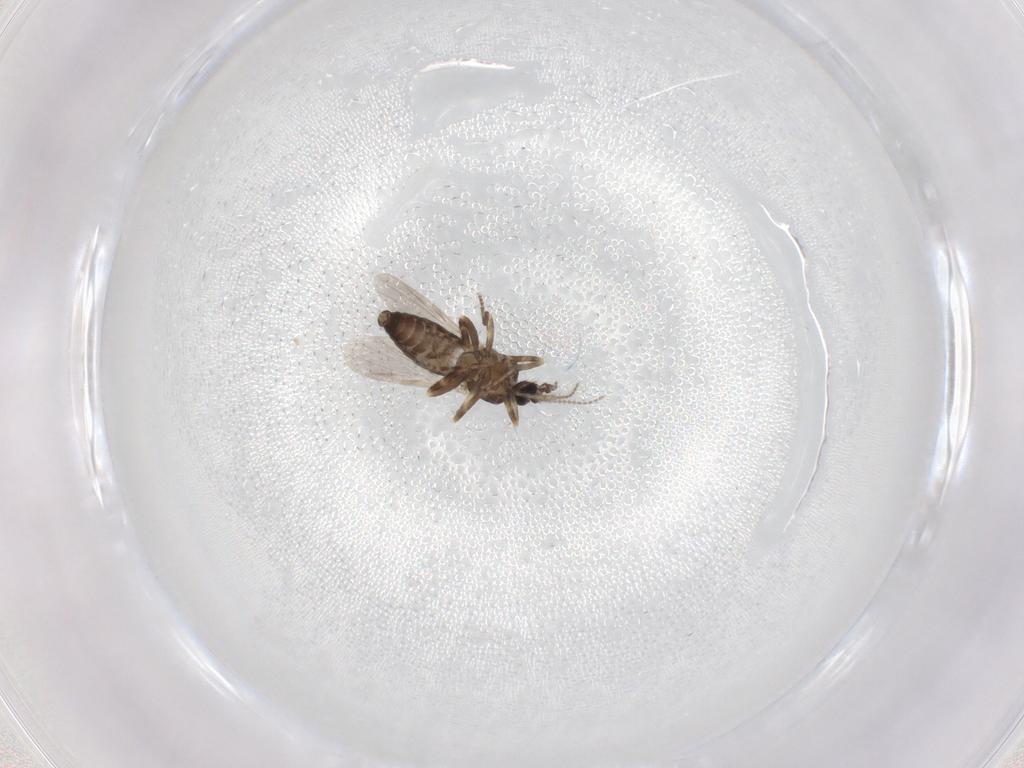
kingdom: Animalia
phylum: Arthropoda
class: Insecta
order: Diptera
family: Ceratopogonidae
